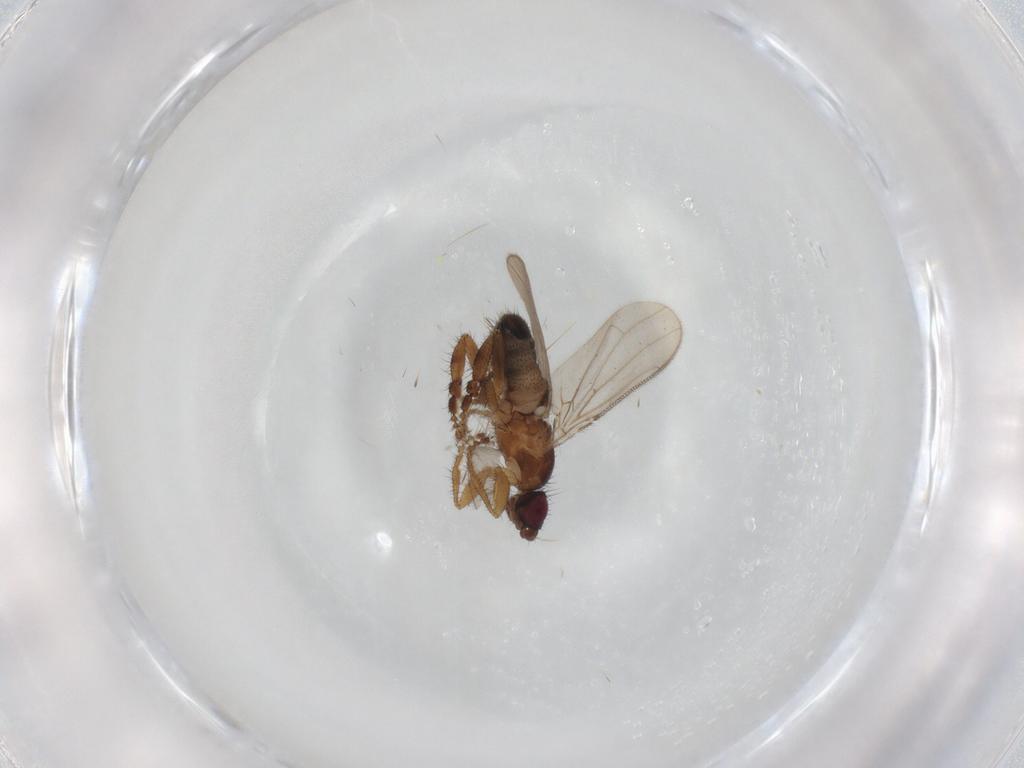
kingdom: Animalia
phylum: Arthropoda
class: Insecta
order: Diptera
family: Sphaeroceridae
